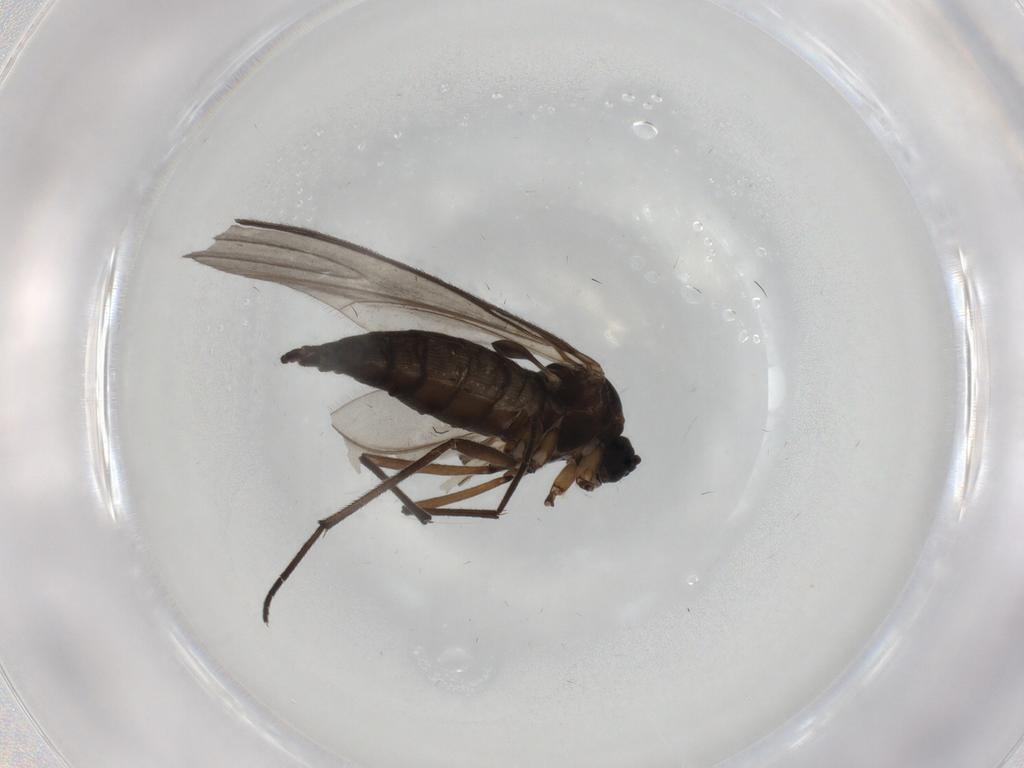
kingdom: Animalia
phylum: Arthropoda
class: Insecta
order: Diptera
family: Sciaridae
